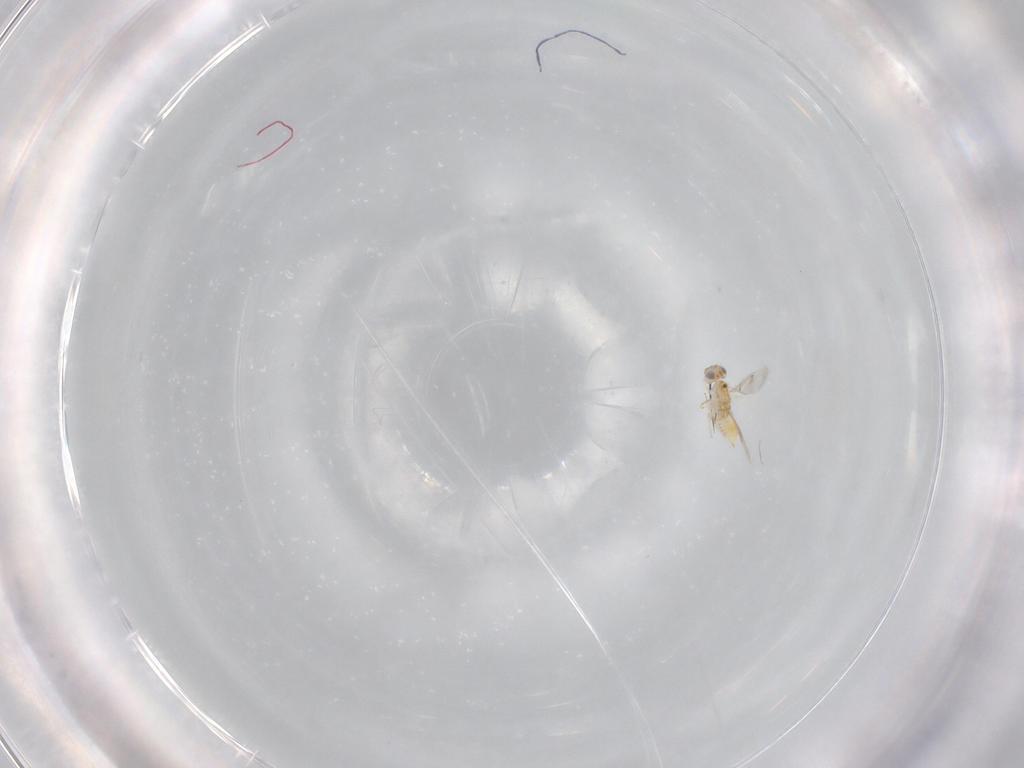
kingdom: Animalia
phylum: Arthropoda
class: Insecta
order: Hymenoptera
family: Aphelinidae
